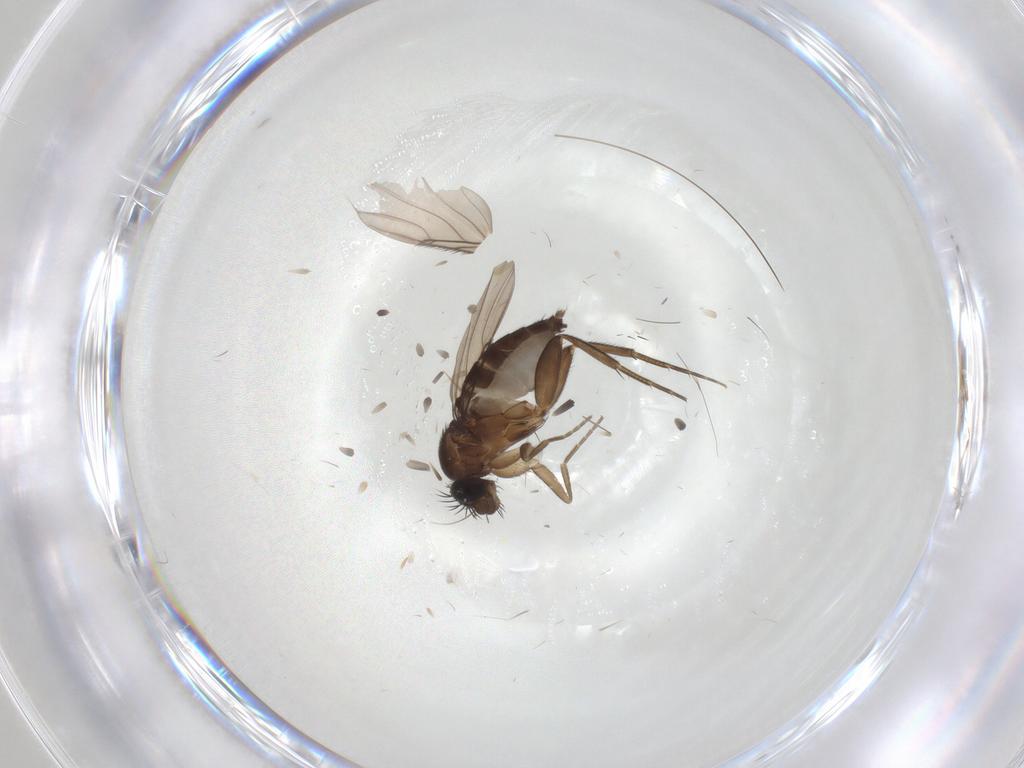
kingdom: Animalia
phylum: Arthropoda
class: Insecta
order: Diptera
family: Phoridae
